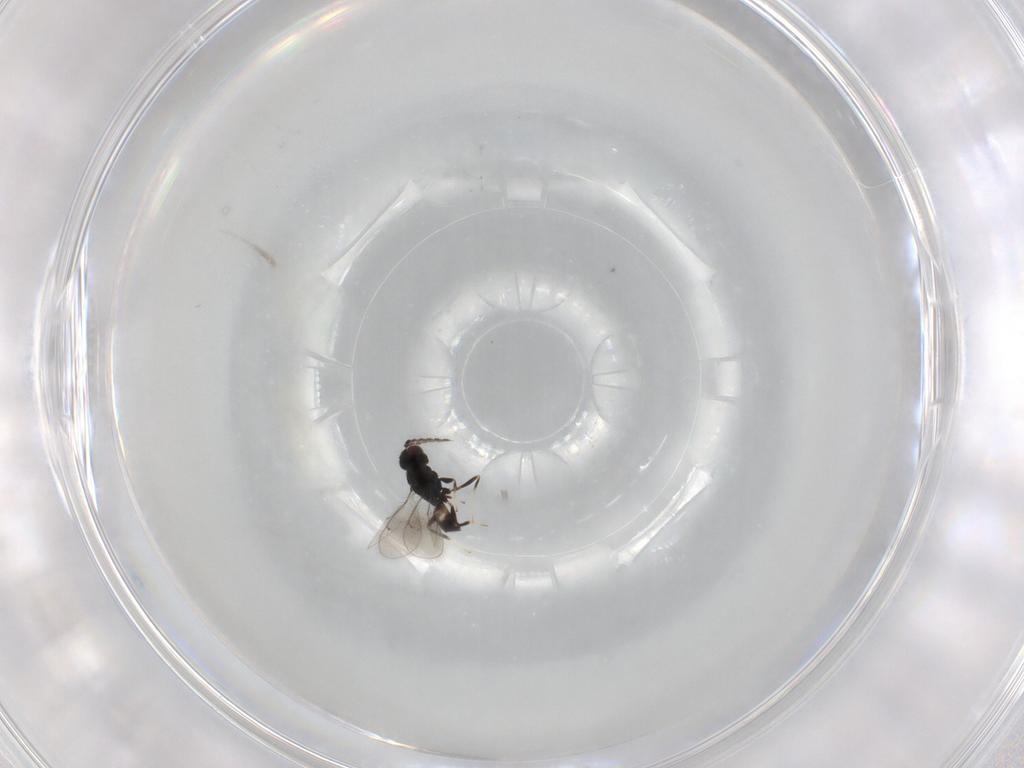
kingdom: Animalia
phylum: Arthropoda
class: Insecta
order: Hymenoptera
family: Eulophidae
